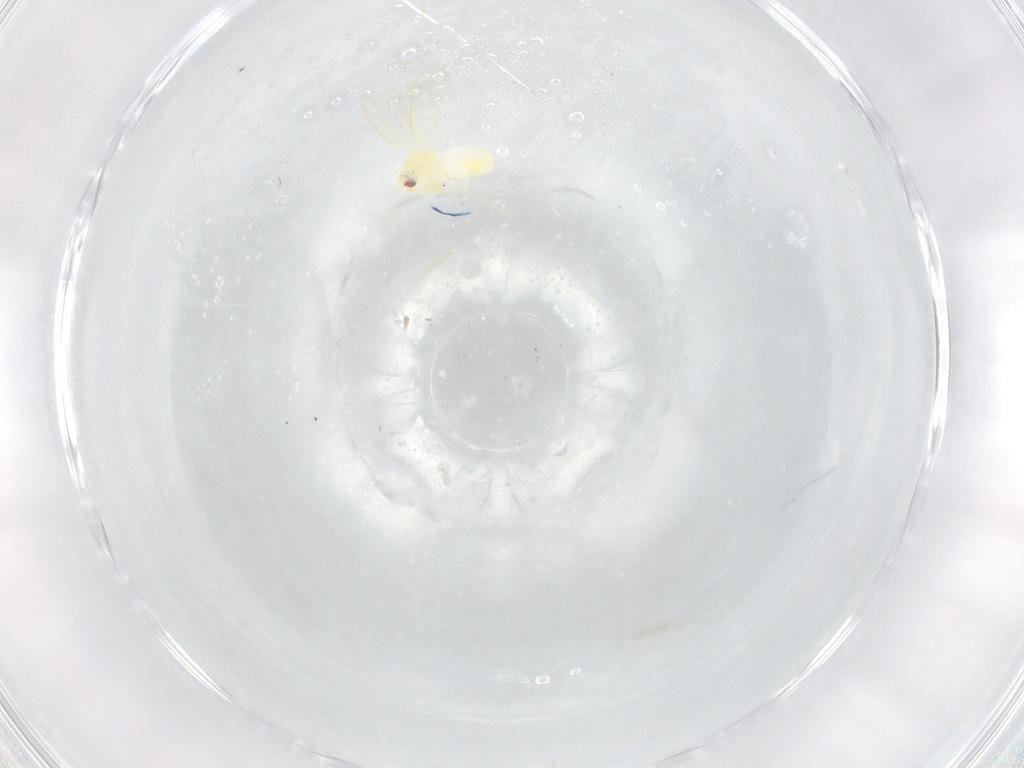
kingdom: Animalia
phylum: Arthropoda
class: Insecta
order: Hemiptera
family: Aleyrodidae
